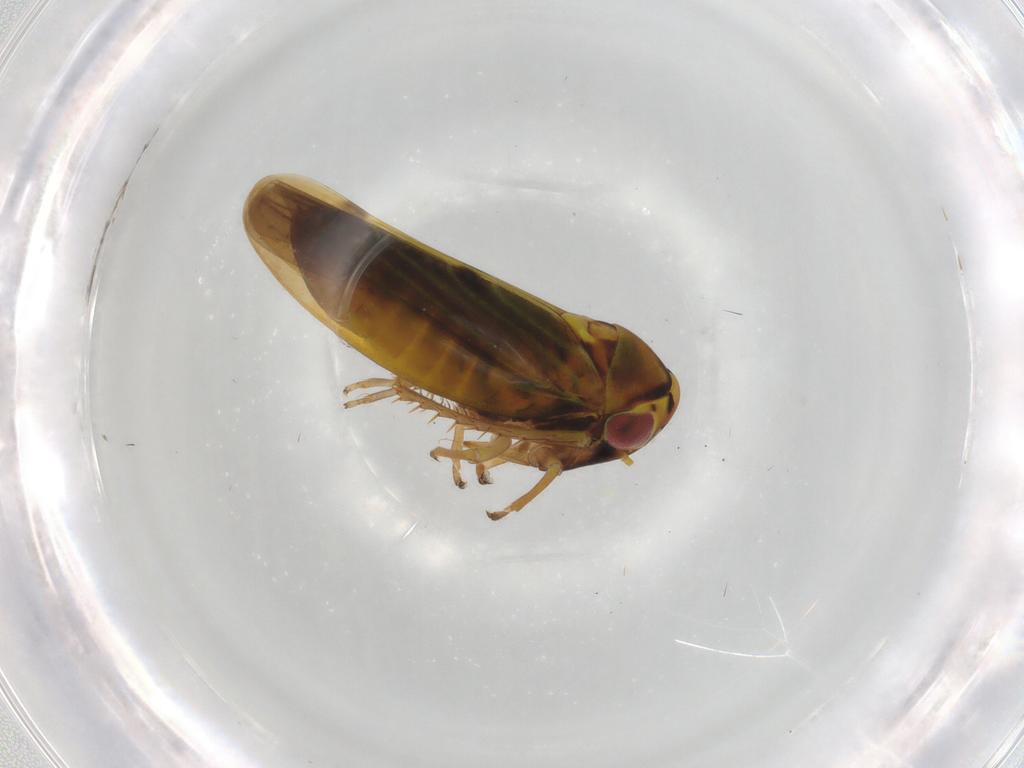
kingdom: Animalia
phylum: Arthropoda
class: Insecta
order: Hemiptera
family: Cicadellidae
